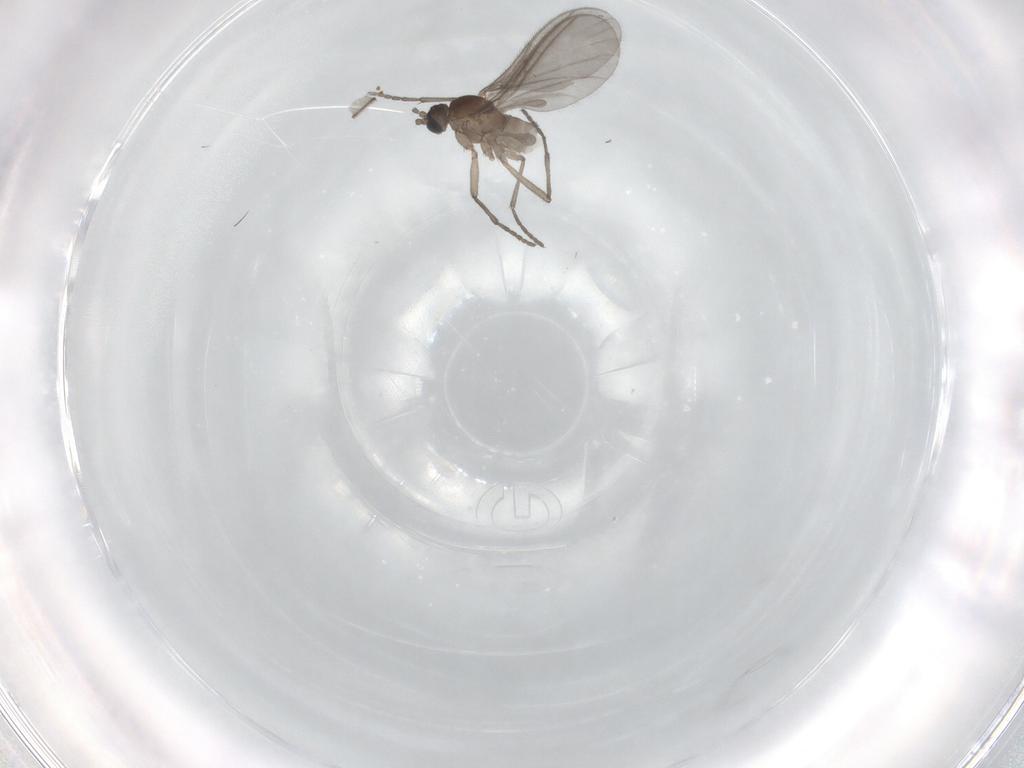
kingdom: Animalia
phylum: Arthropoda
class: Insecta
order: Diptera
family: Sciaridae
